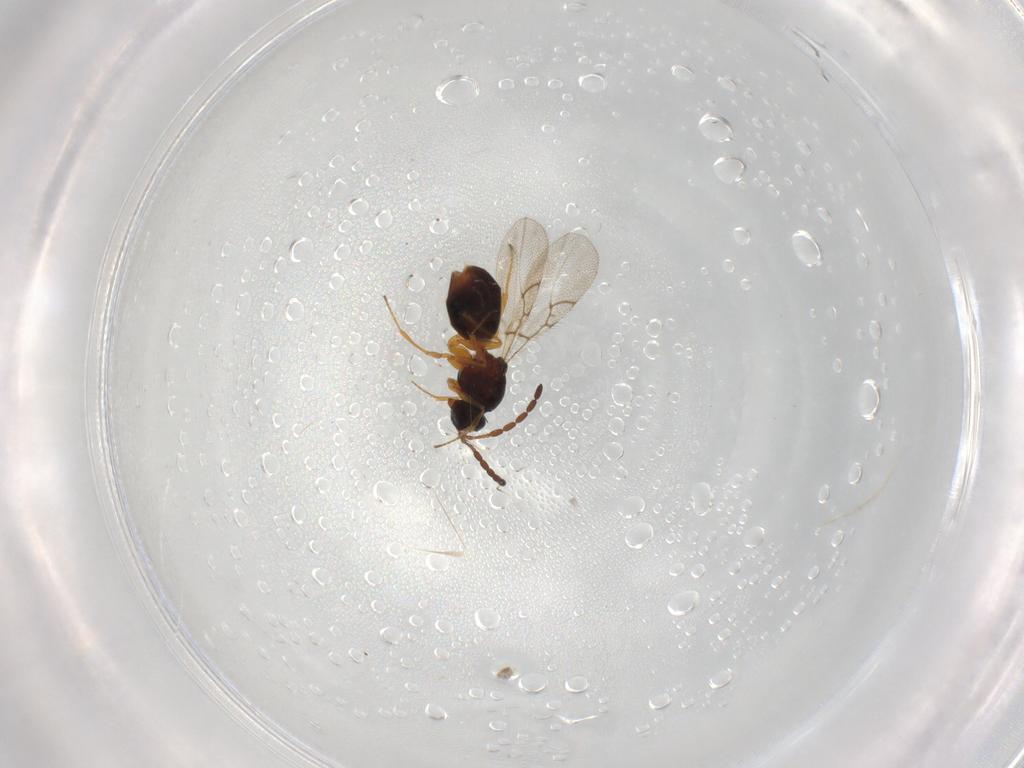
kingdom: Animalia
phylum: Arthropoda
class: Insecta
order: Hymenoptera
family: Figitidae
